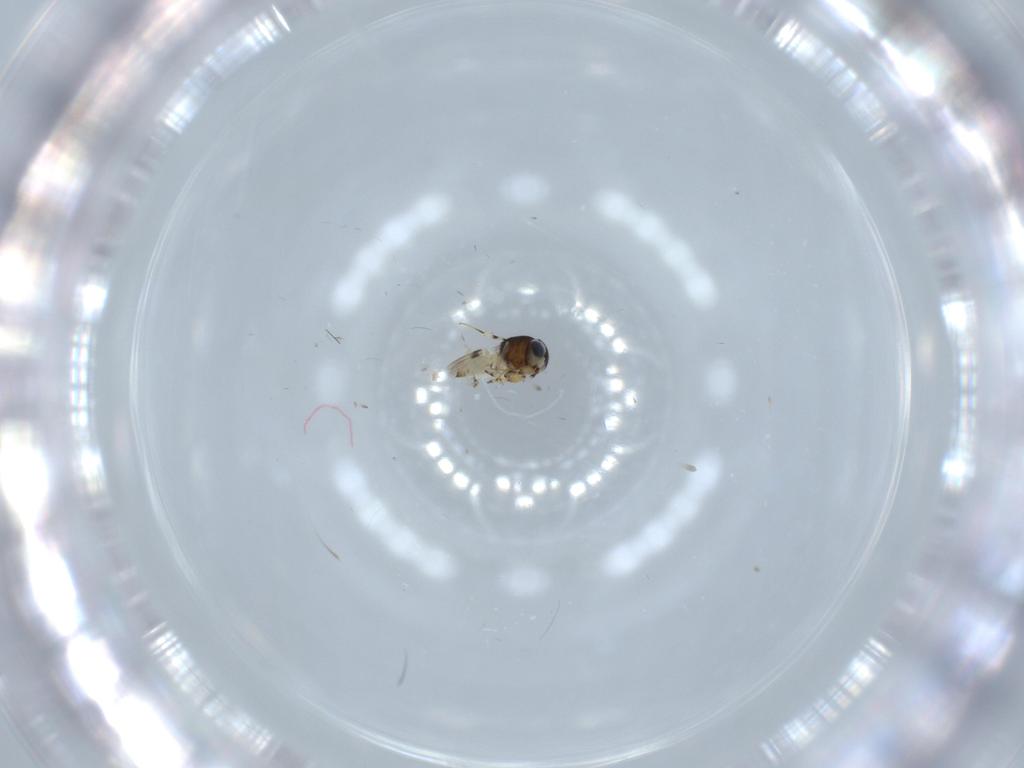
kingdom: Animalia
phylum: Arthropoda
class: Insecta
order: Hymenoptera
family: Scelionidae
